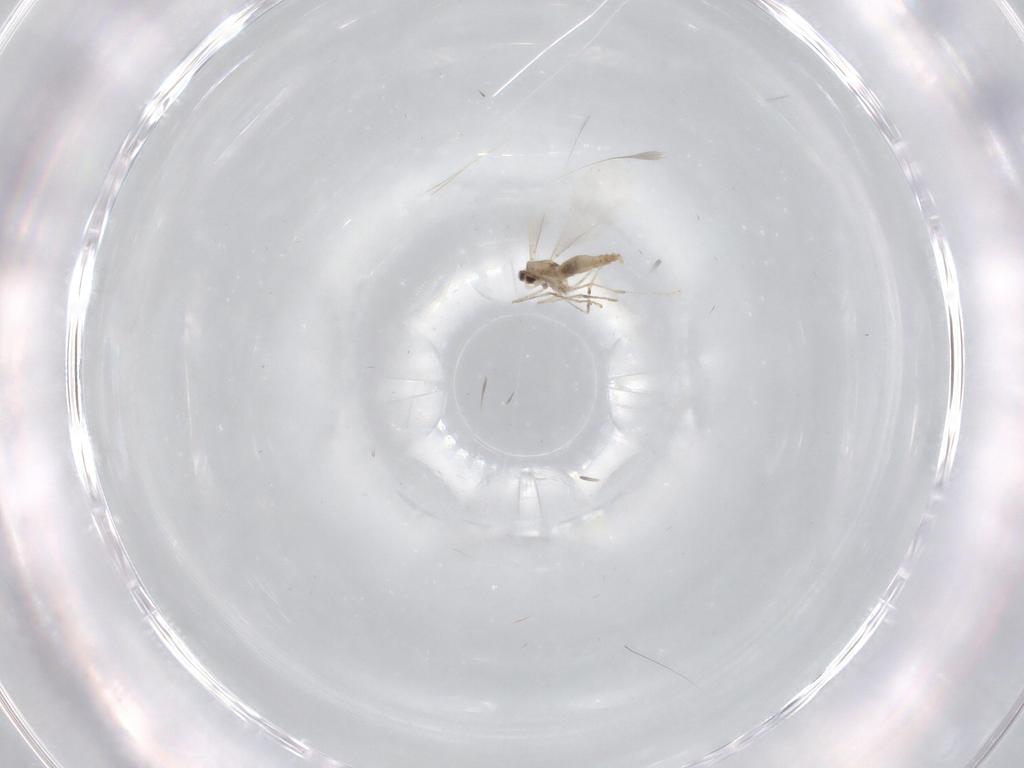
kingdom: Animalia
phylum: Arthropoda
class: Insecta
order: Diptera
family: Cecidomyiidae
